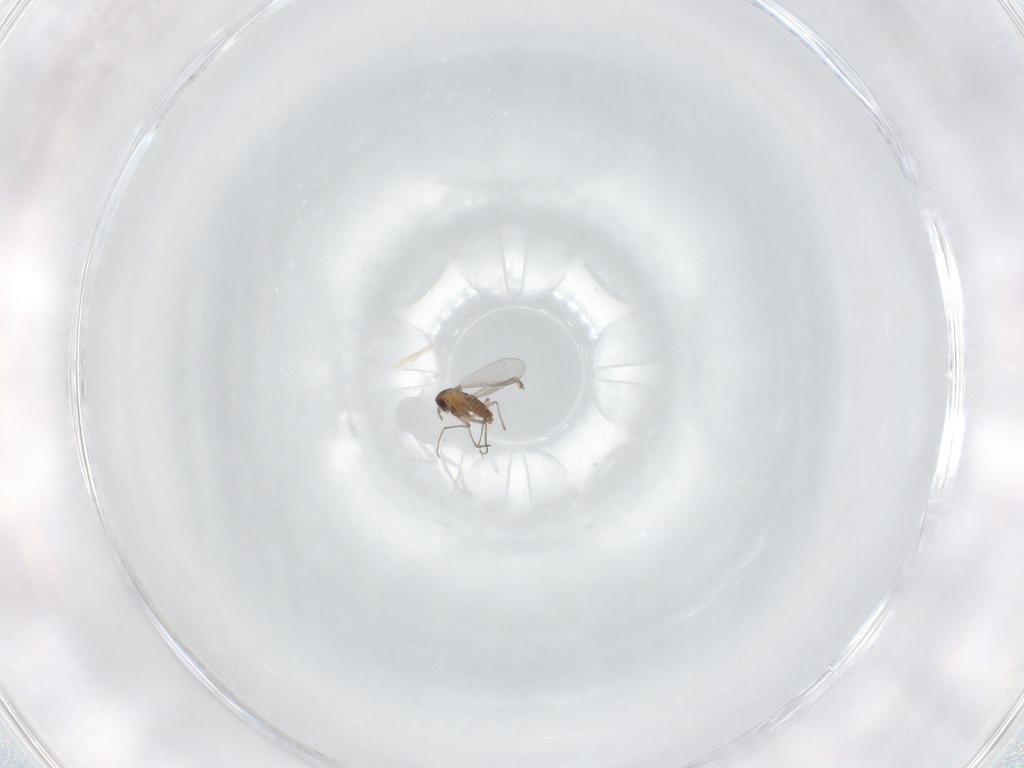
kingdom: Animalia
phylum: Arthropoda
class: Insecta
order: Diptera
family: Chironomidae
